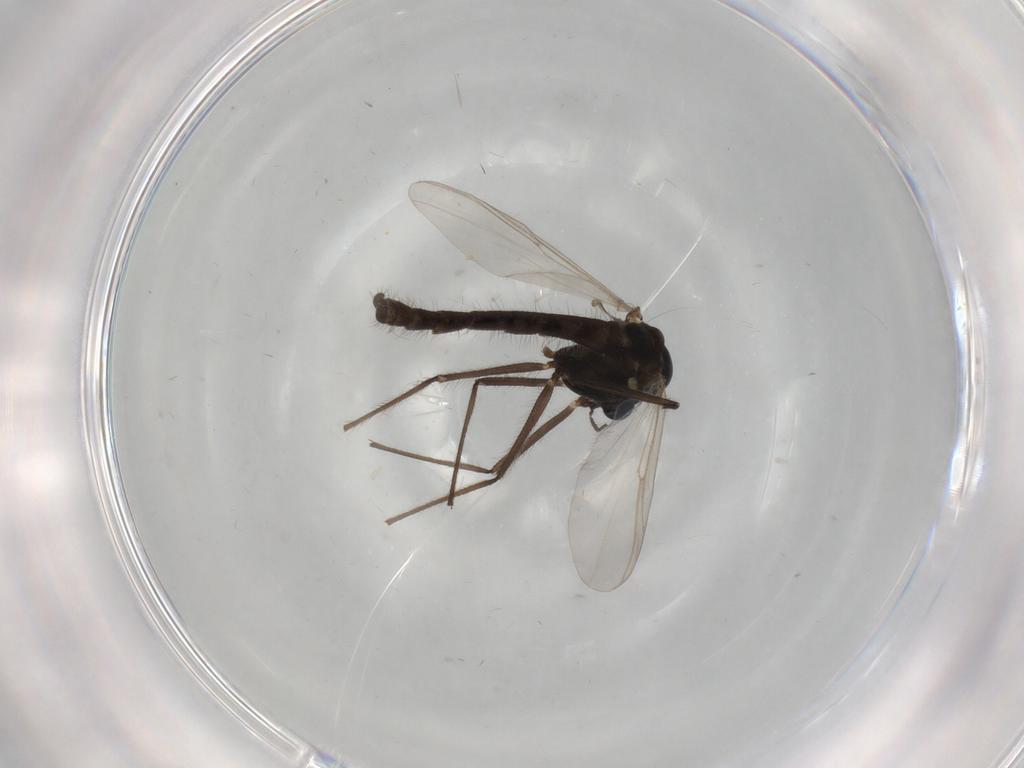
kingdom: Animalia
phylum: Arthropoda
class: Insecta
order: Diptera
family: Chironomidae
